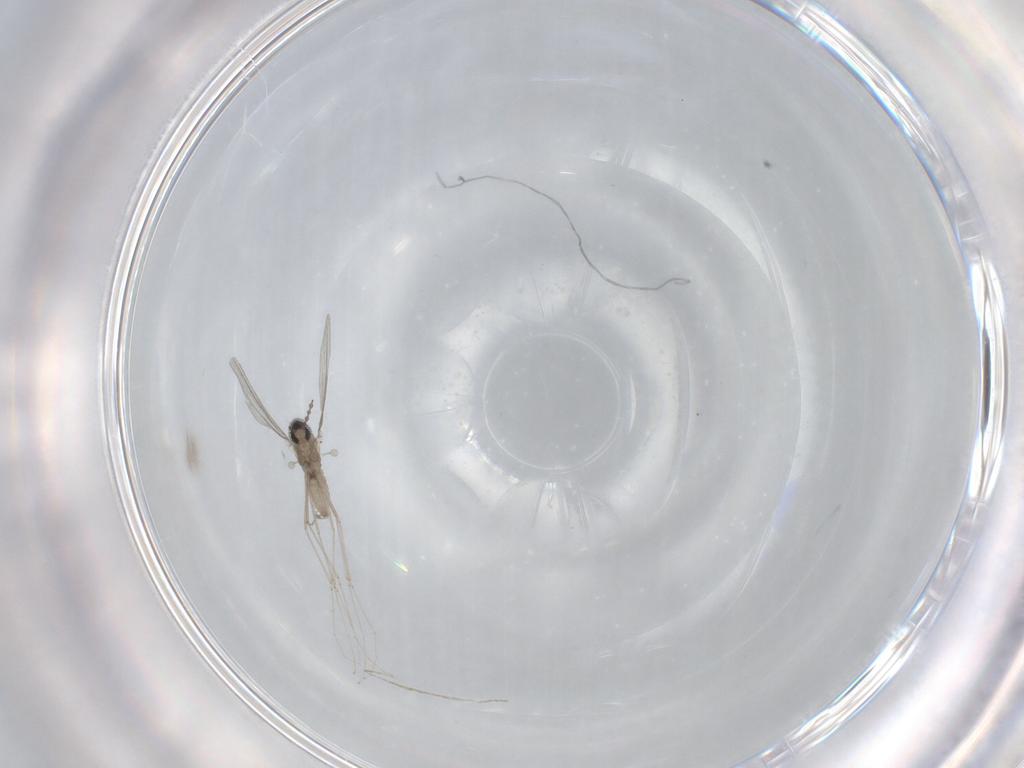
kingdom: Animalia
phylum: Arthropoda
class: Insecta
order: Diptera
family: Cecidomyiidae
